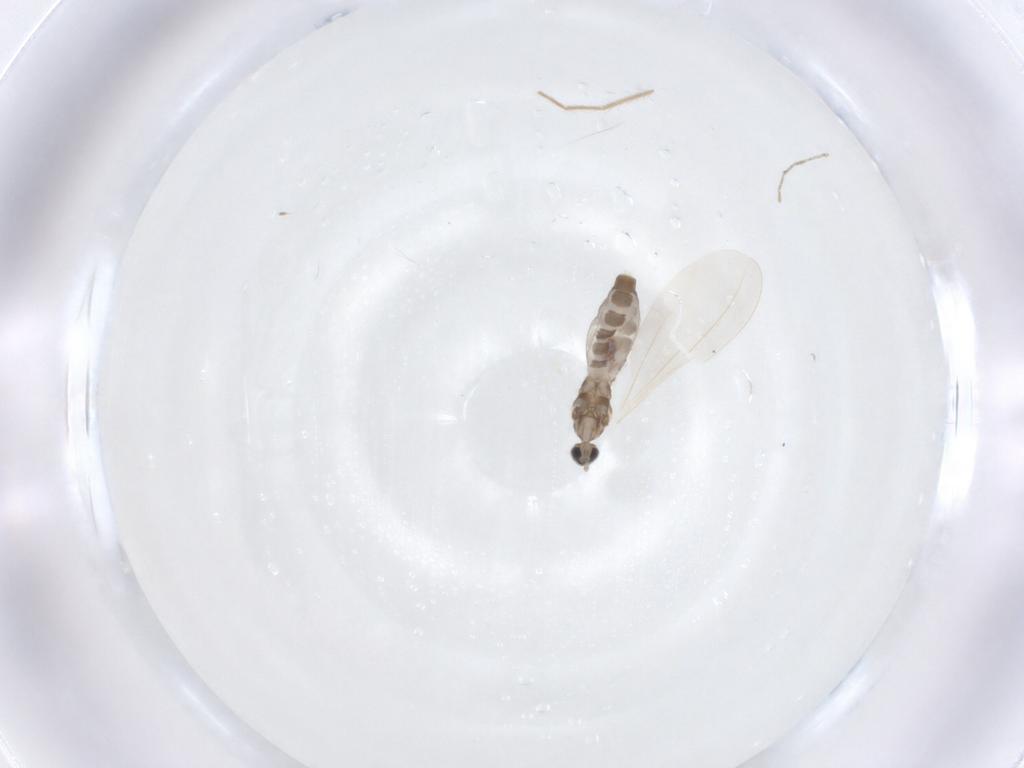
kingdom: Animalia
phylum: Arthropoda
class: Insecta
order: Diptera
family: Cecidomyiidae
